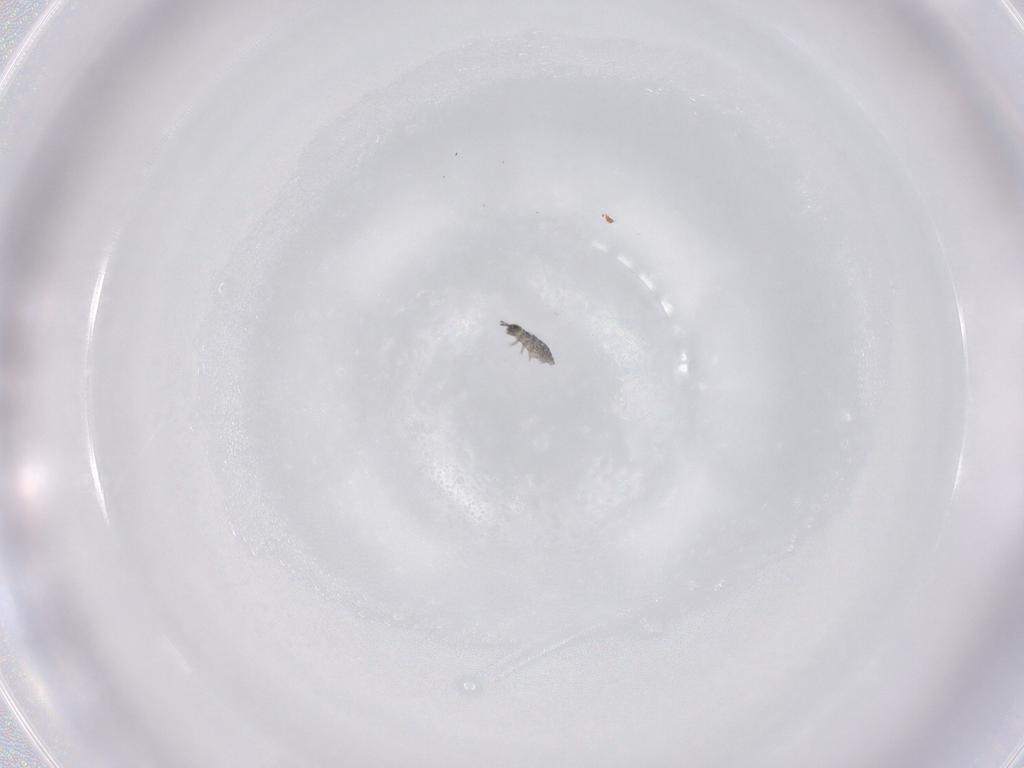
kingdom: Animalia
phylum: Arthropoda
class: Collembola
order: Poduromorpha
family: Hypogastruridae
